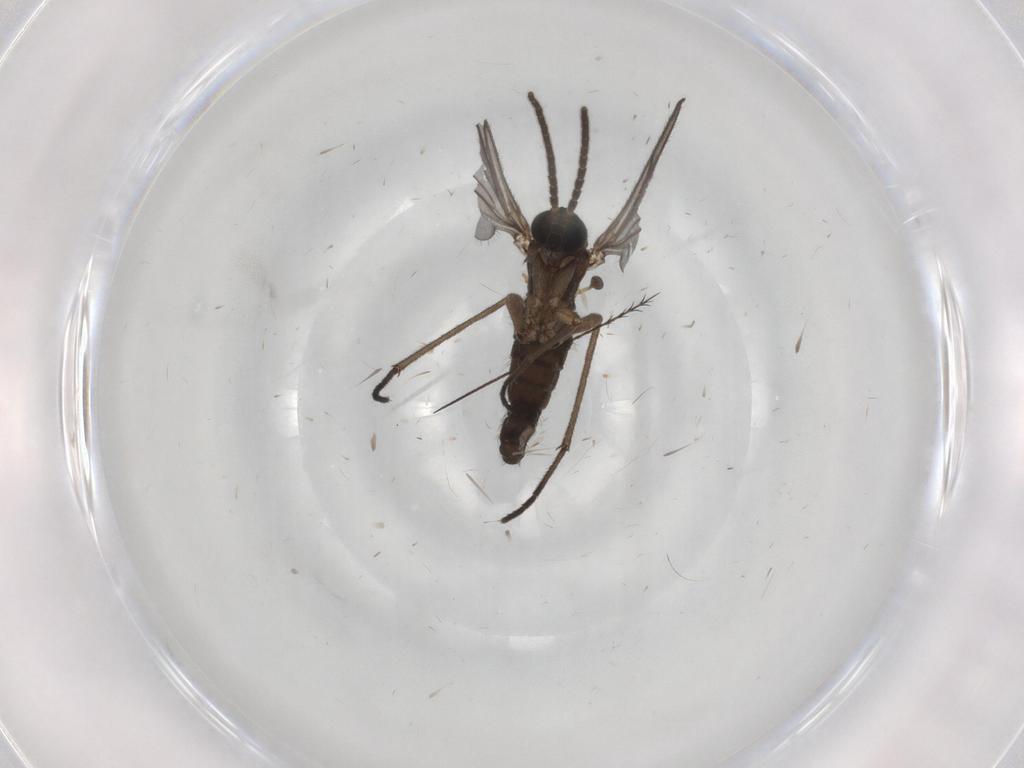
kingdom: Animalia
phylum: Arthropoda
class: Insecta
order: Diptera
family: Sciaridae
